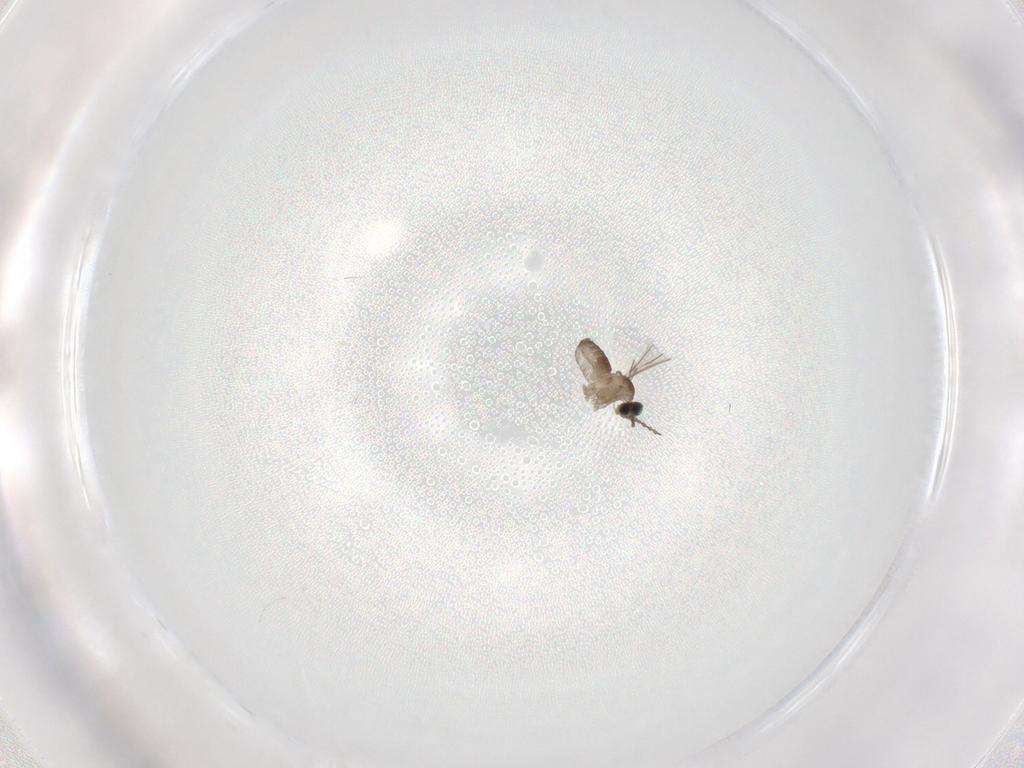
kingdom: Animalia
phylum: Arthropoda
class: Insecta
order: Diptera
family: Cecidomyiidae
